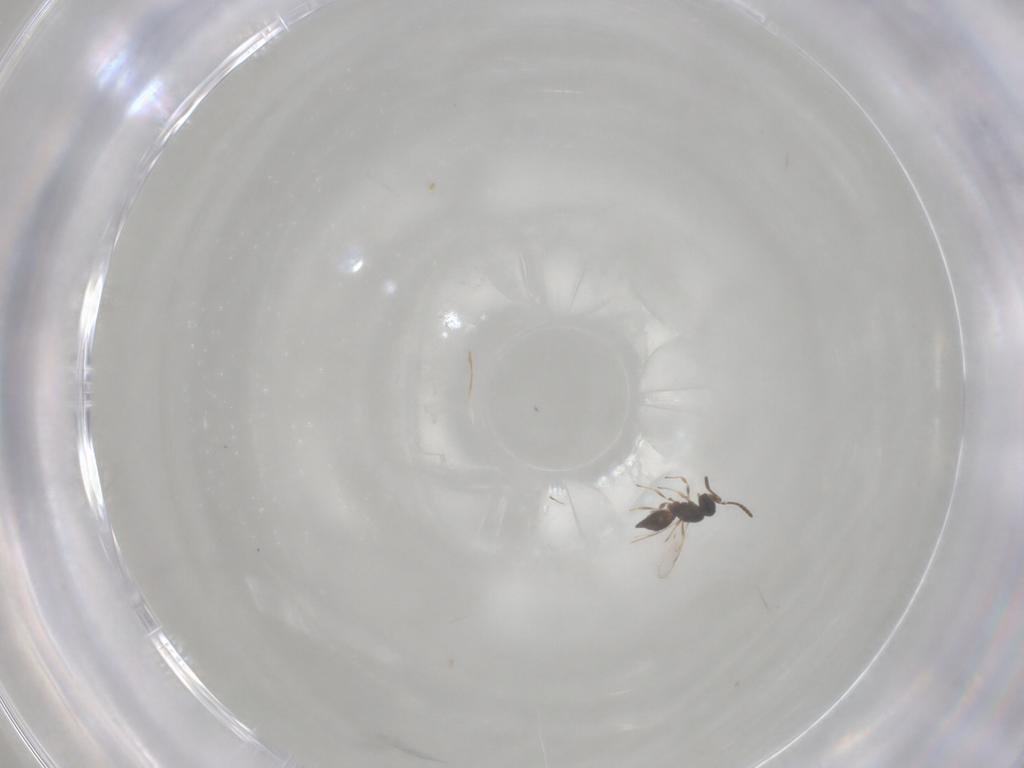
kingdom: Animalia
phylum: Arthropoda
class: Insecta
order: Hymenoptera
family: Scelionidae
